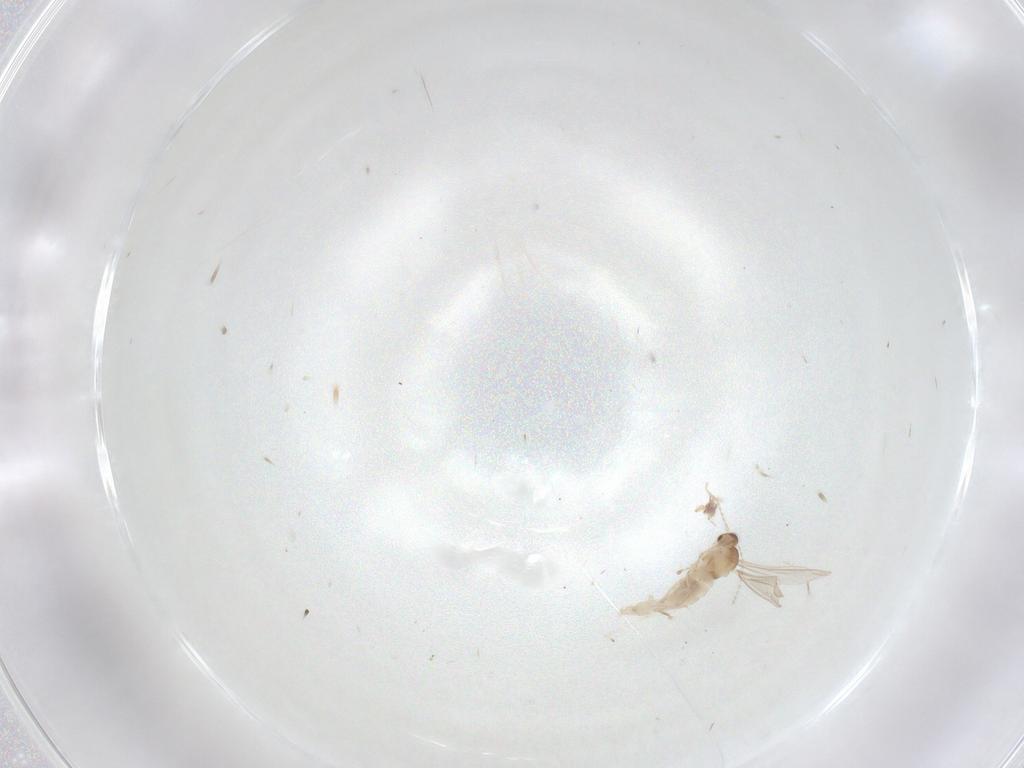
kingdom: Animalia
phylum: Arthropoda
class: Insecta
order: Diptera
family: Cecidomyiidae
